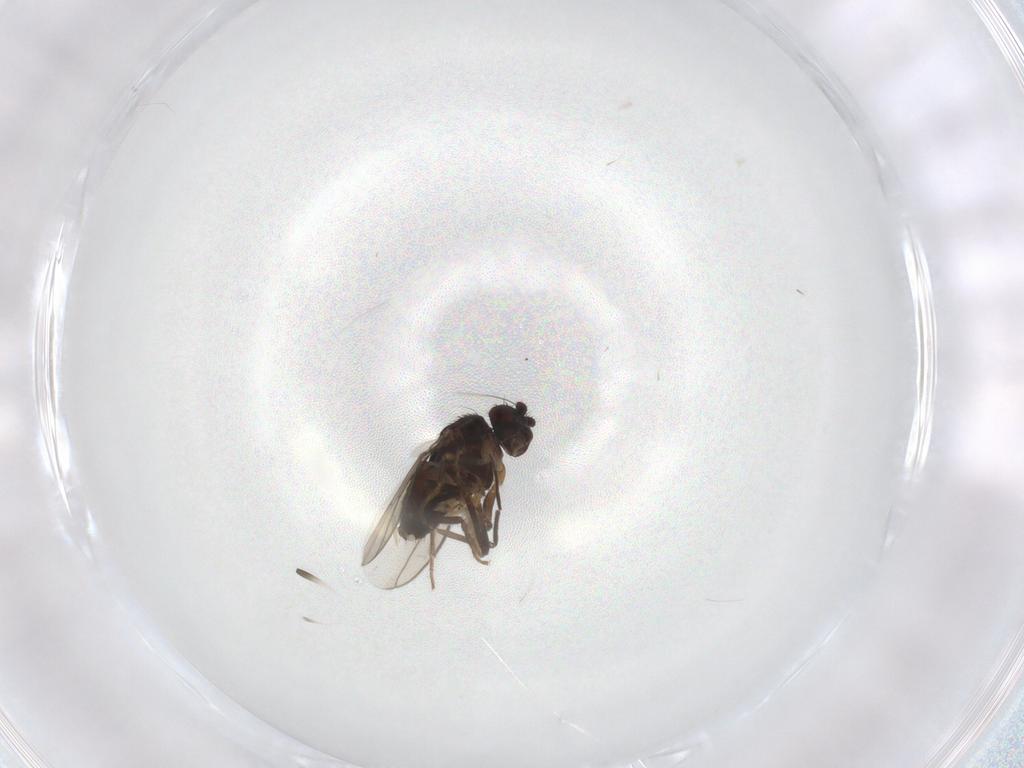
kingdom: Animalia
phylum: Arthropoda
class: Insecta
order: Diptera
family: Sphaeroceridae
